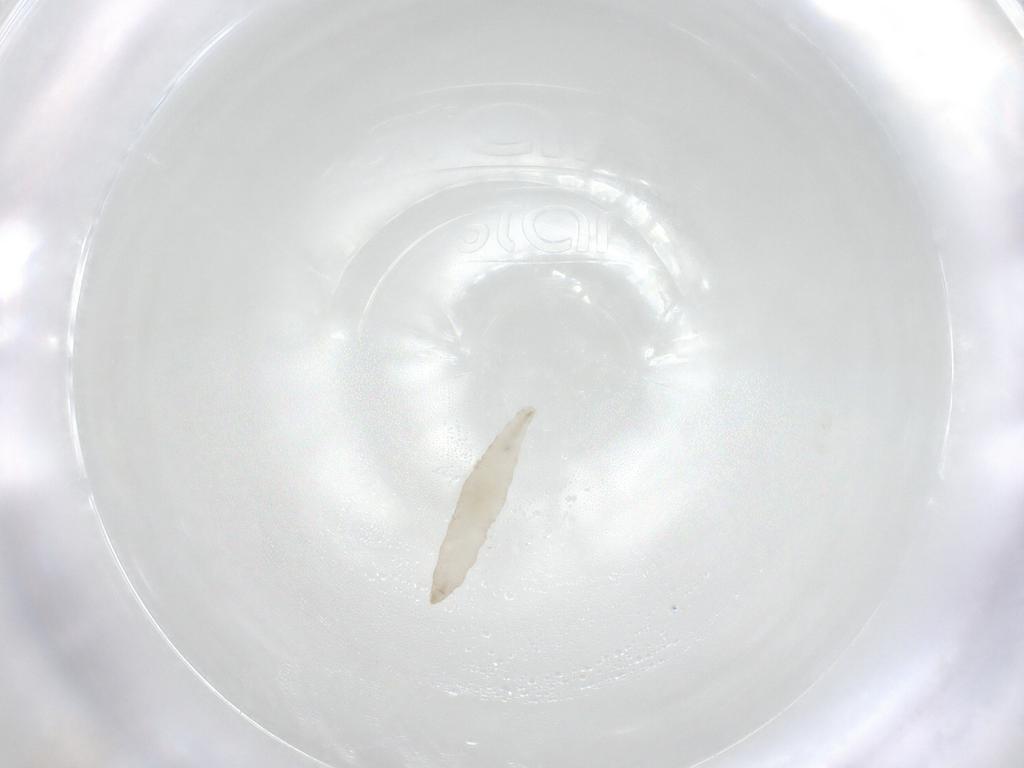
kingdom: Animalia
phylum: Arthropoda
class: Insecta
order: Diptera
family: Phoridae
